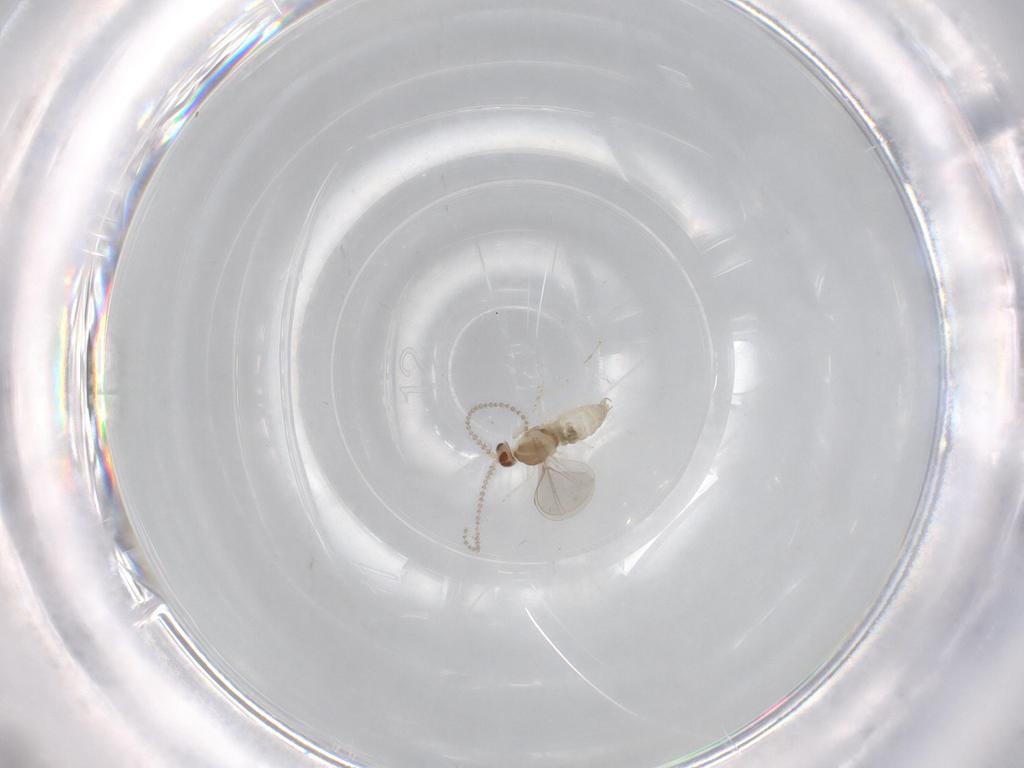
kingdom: Animalia
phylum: Arthropoda
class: Insecta
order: Diptera
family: Cecidomyiidae
